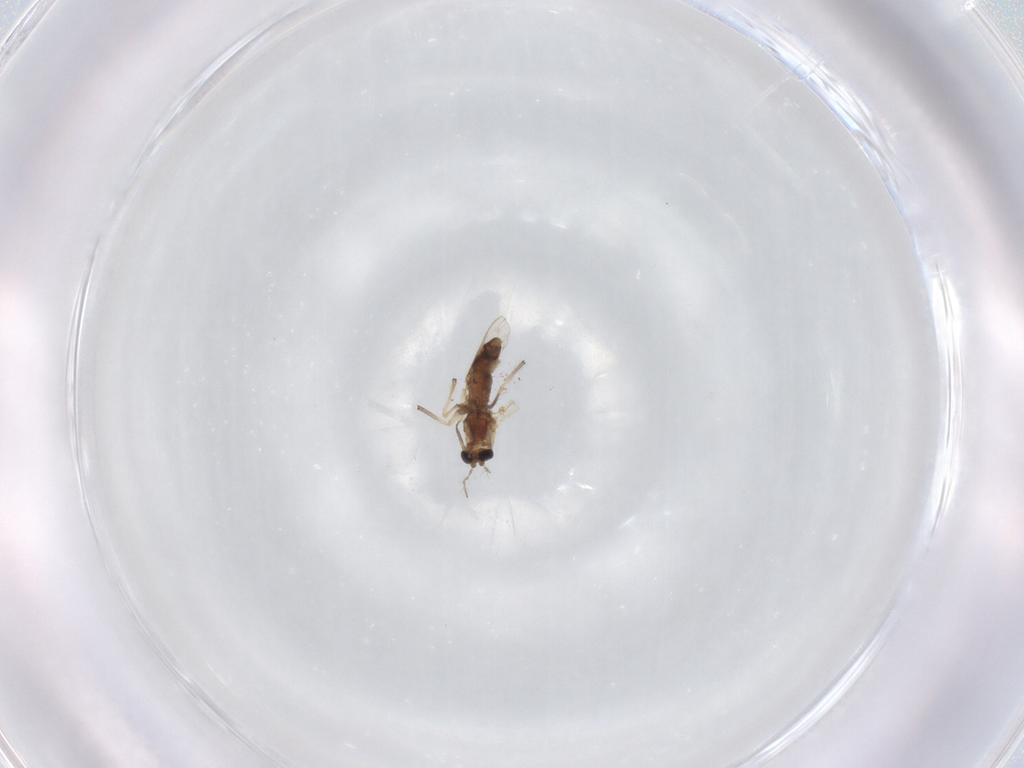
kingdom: Animalia
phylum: Arthropoda
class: Insecta
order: Diptera
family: Chironomidae
